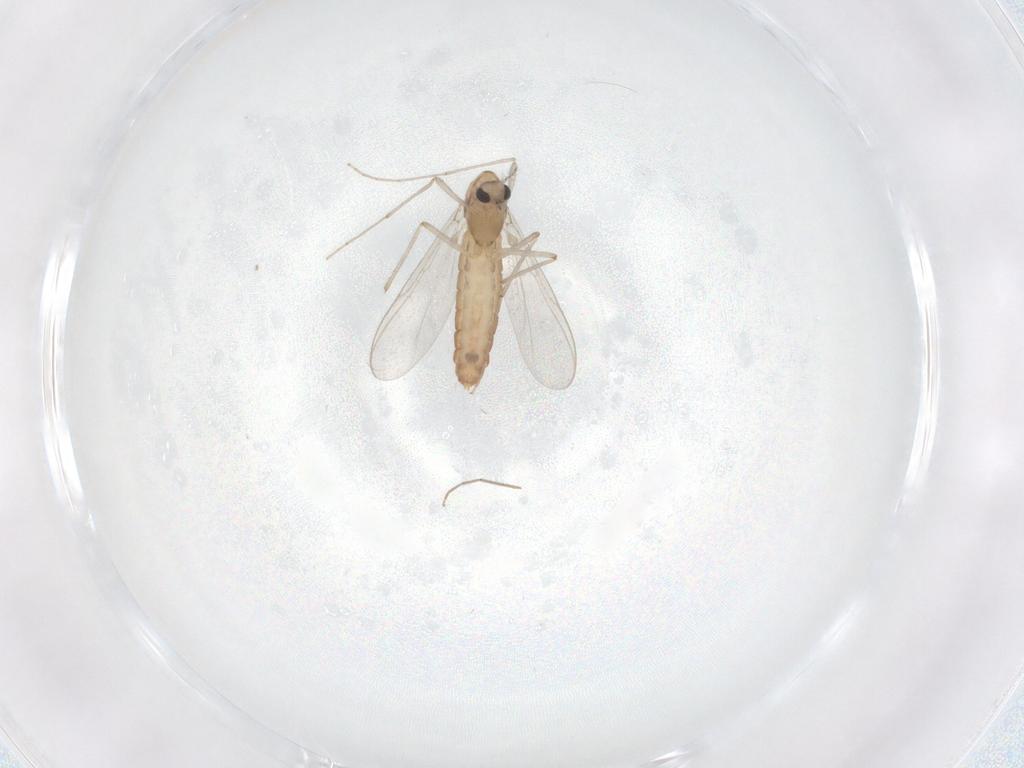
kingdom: Animalia
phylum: Arthropoda
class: Insecta
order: Diptera
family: Chironomidae
